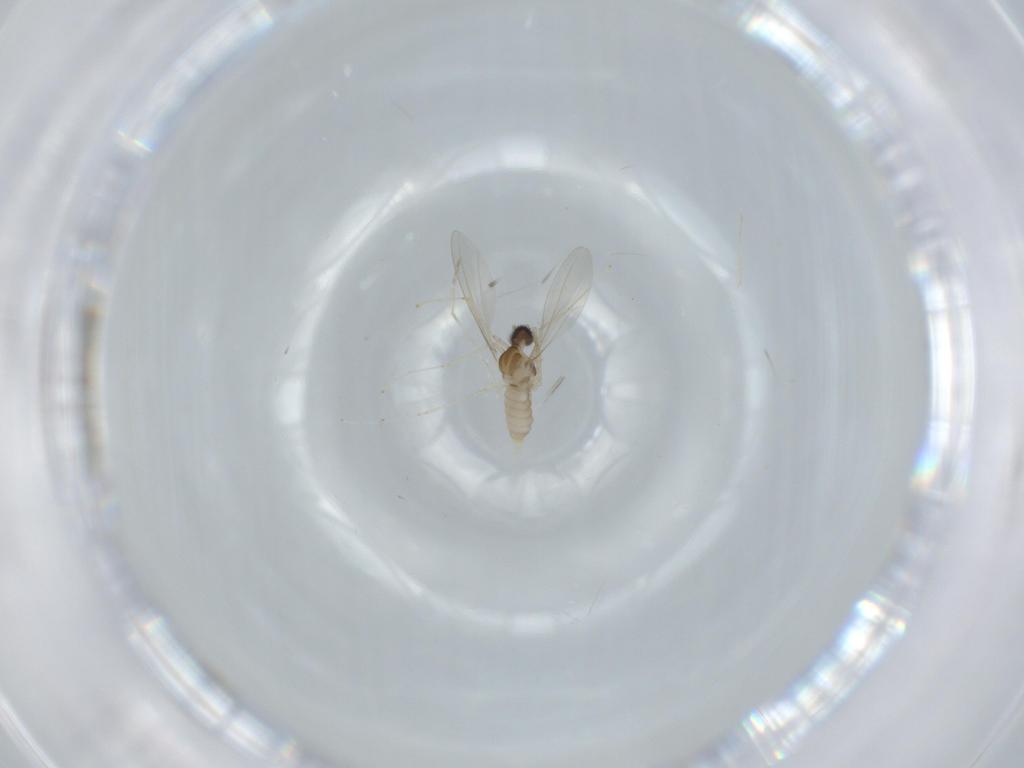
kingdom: Animalia
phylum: Arthropoda
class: Insecta
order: Diptera
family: Cecidomyiidae
